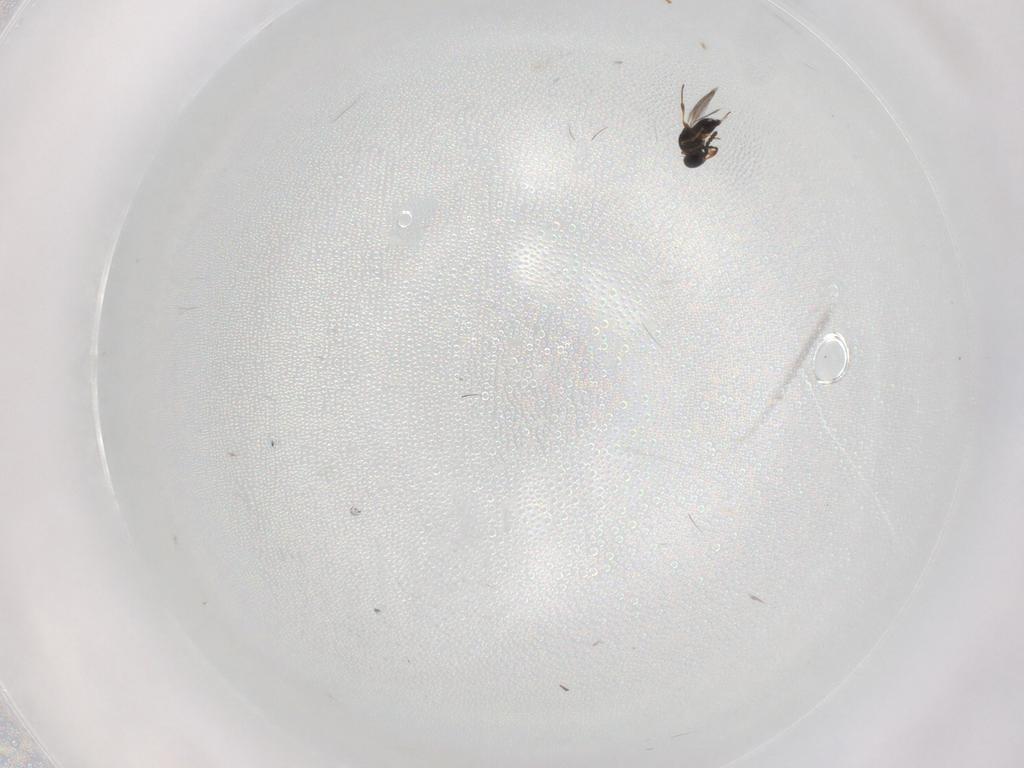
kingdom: Animalia
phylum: Arthropoda
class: Insecta
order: Hymenoptera
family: Platygastridae
